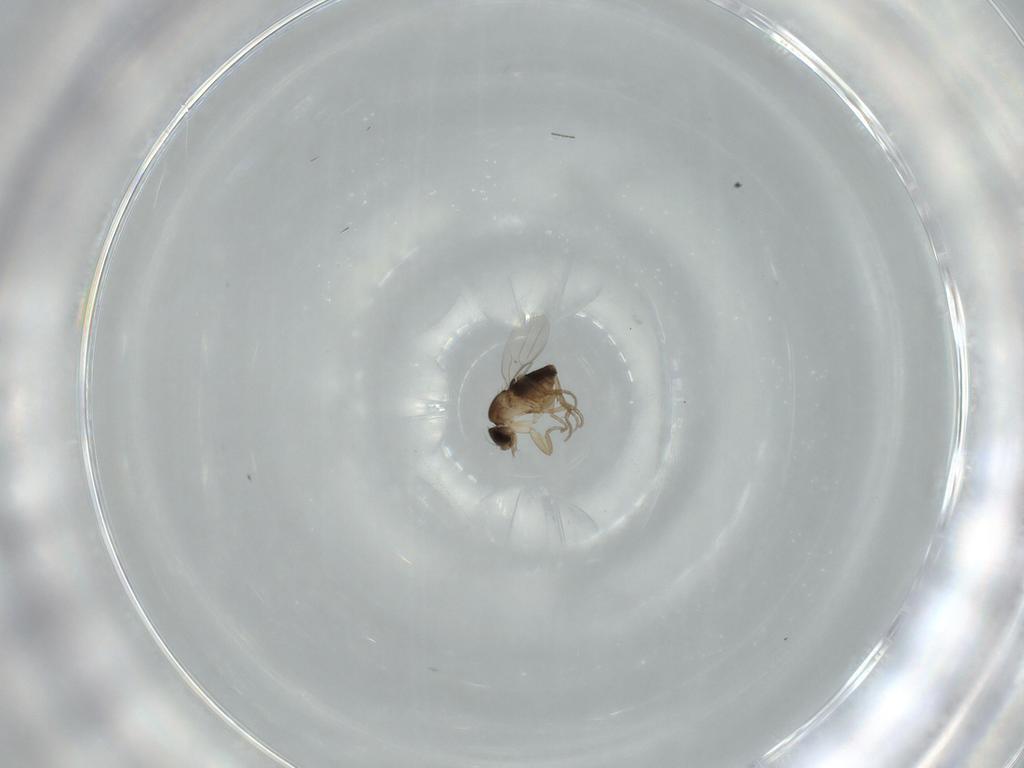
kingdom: Animalia
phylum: Arthropoda
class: Insecta
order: Diptera
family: Phoridae
